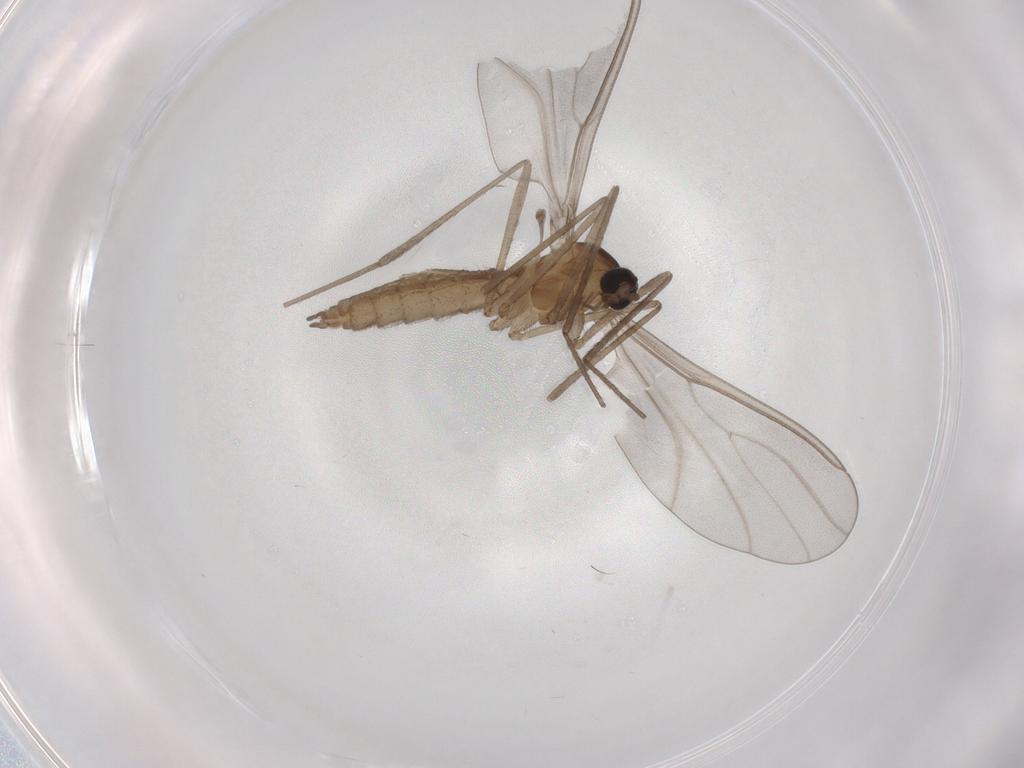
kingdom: Animalia
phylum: Arthropoda
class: Insecta
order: Diptera
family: Cecidomyiidae
